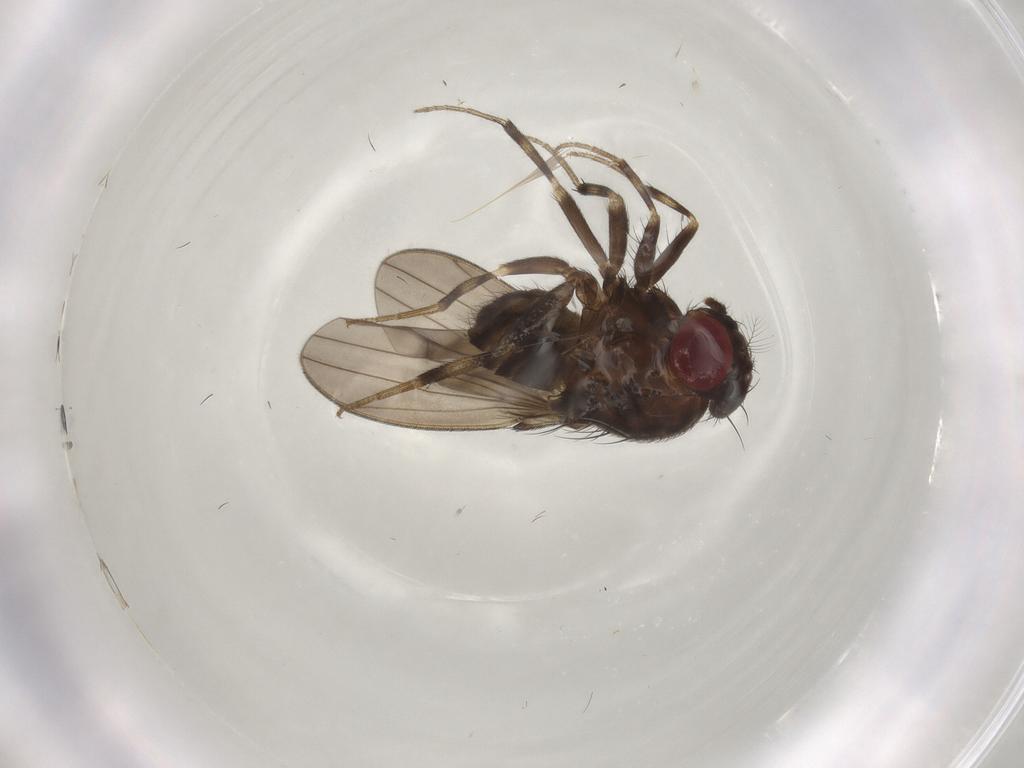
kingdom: Animalia
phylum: Arthropoda
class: Insecta
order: Diptera
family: Drosophilidae
